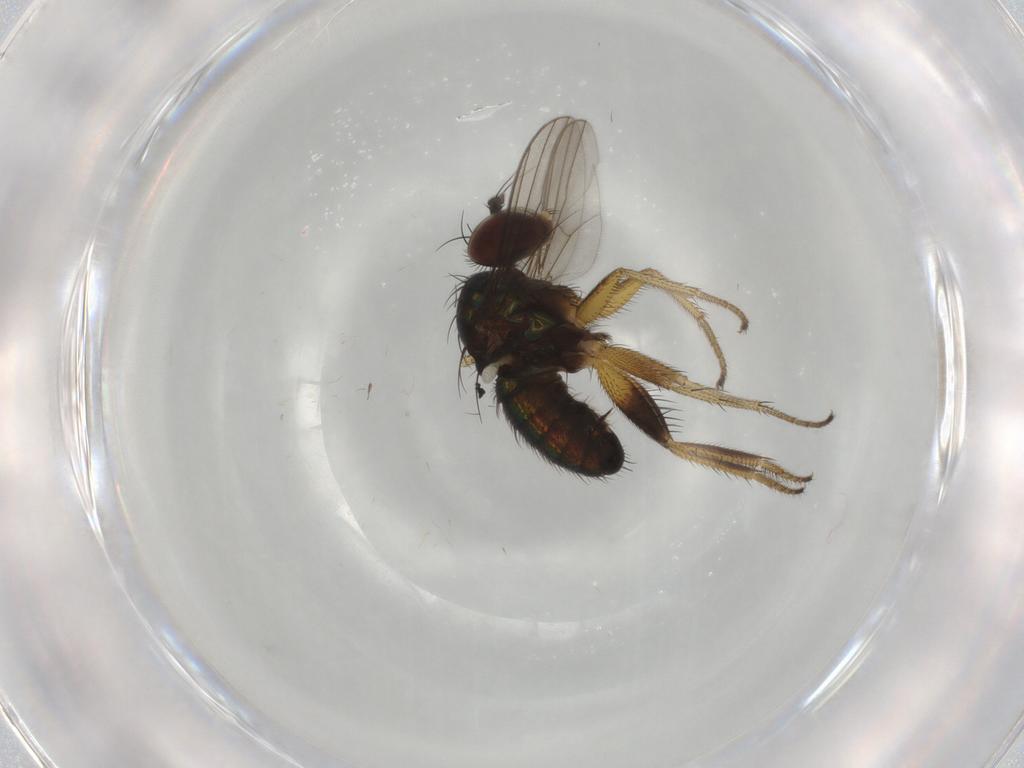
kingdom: Animalia
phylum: Arthropoda
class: Insecta
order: Diptera
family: Dolichopodidae
